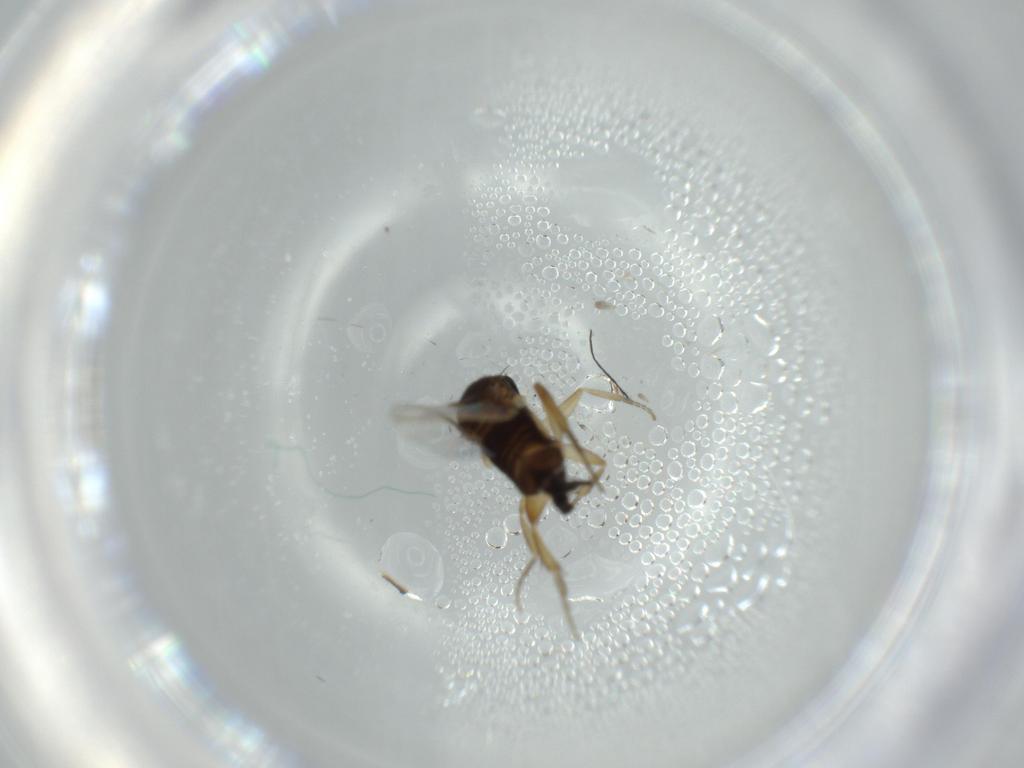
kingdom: Animalia
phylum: Arthropoda
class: Insecta
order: Diptera
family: Phoridae
